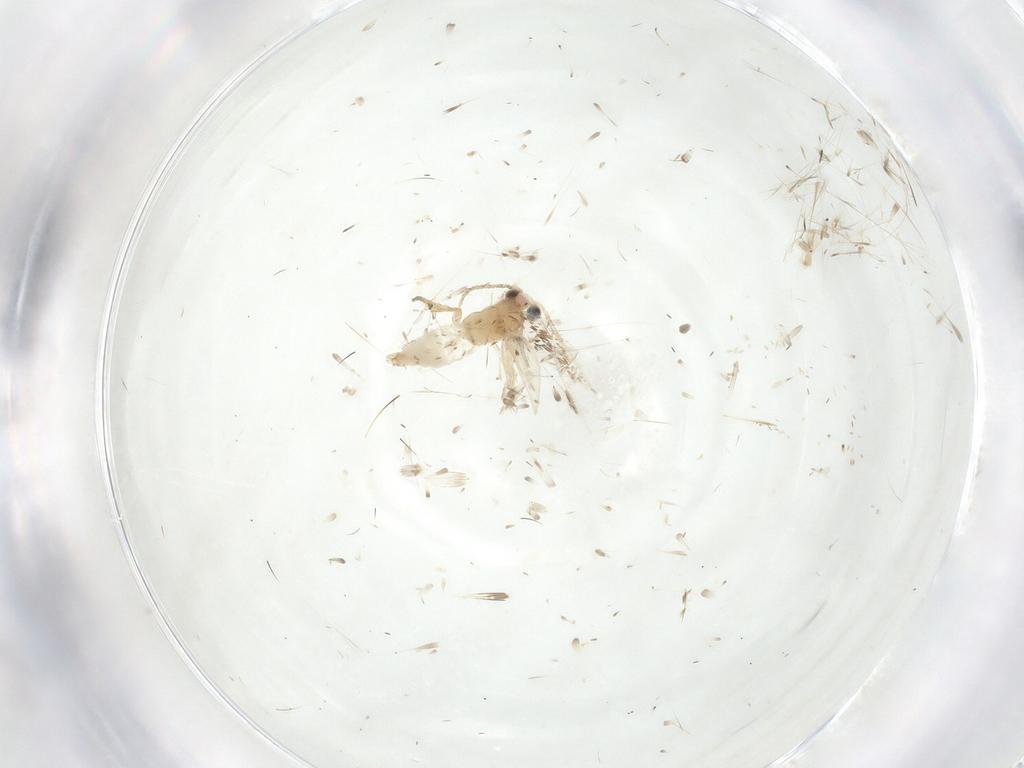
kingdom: Animalia
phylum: Arthropoda
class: Insecta
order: Lepidoptera
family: Nepticulidae
